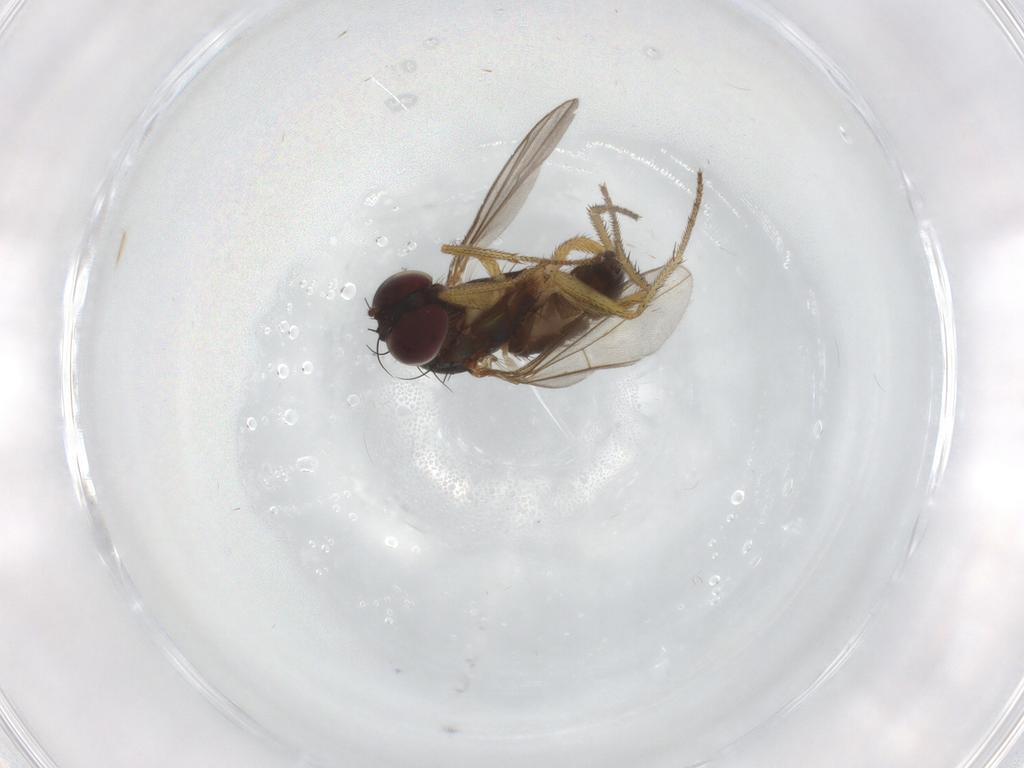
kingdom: Animalia
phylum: Arthropoda
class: Insecta
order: Diptera
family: Dolichopodidae
